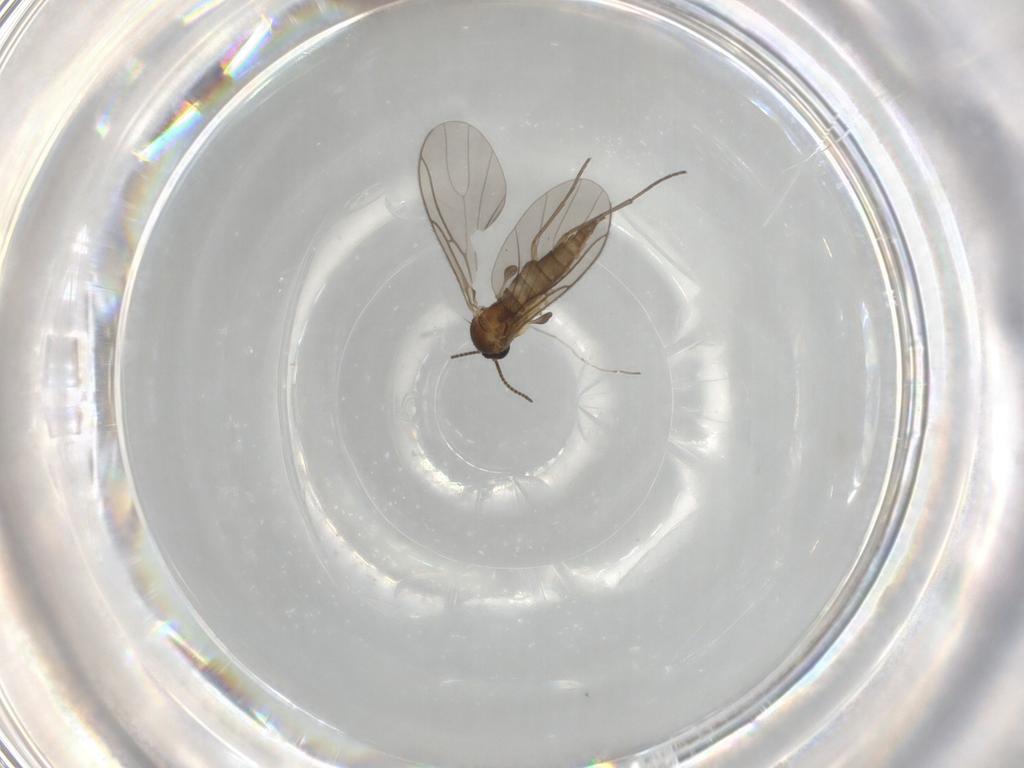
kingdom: Animalia
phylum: Arthropoda
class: Insecta
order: Diptera
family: Sciaridae
